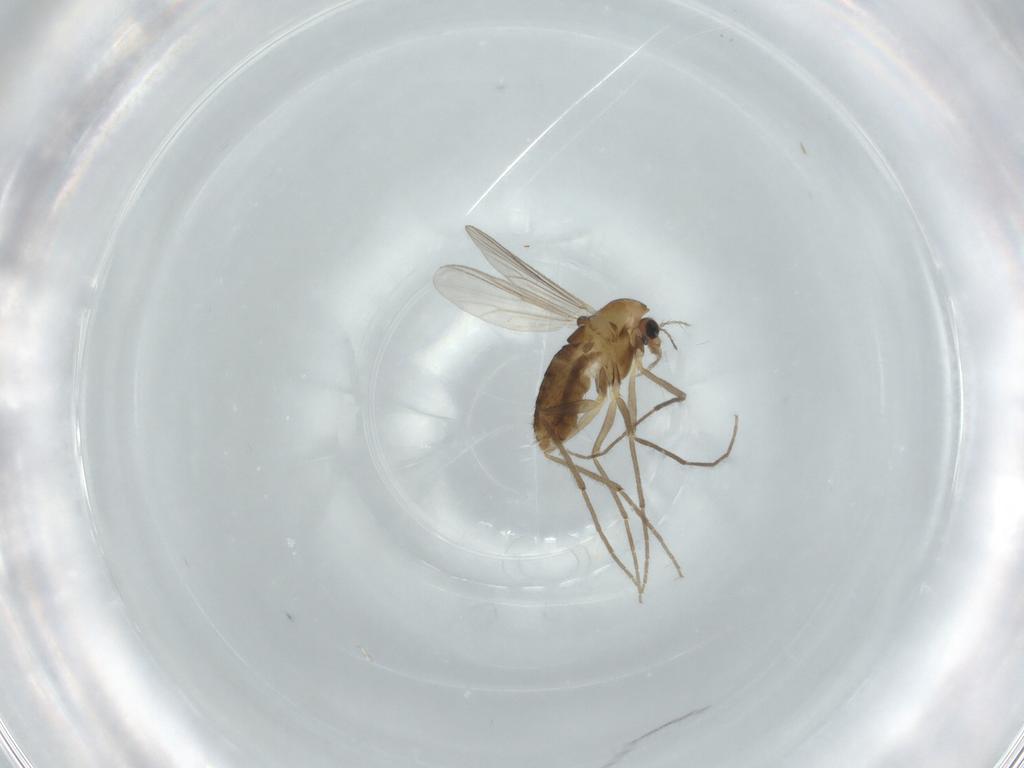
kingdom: Animalia
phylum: Arthropoda
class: Insecta
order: Diptera
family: Chironomidae
